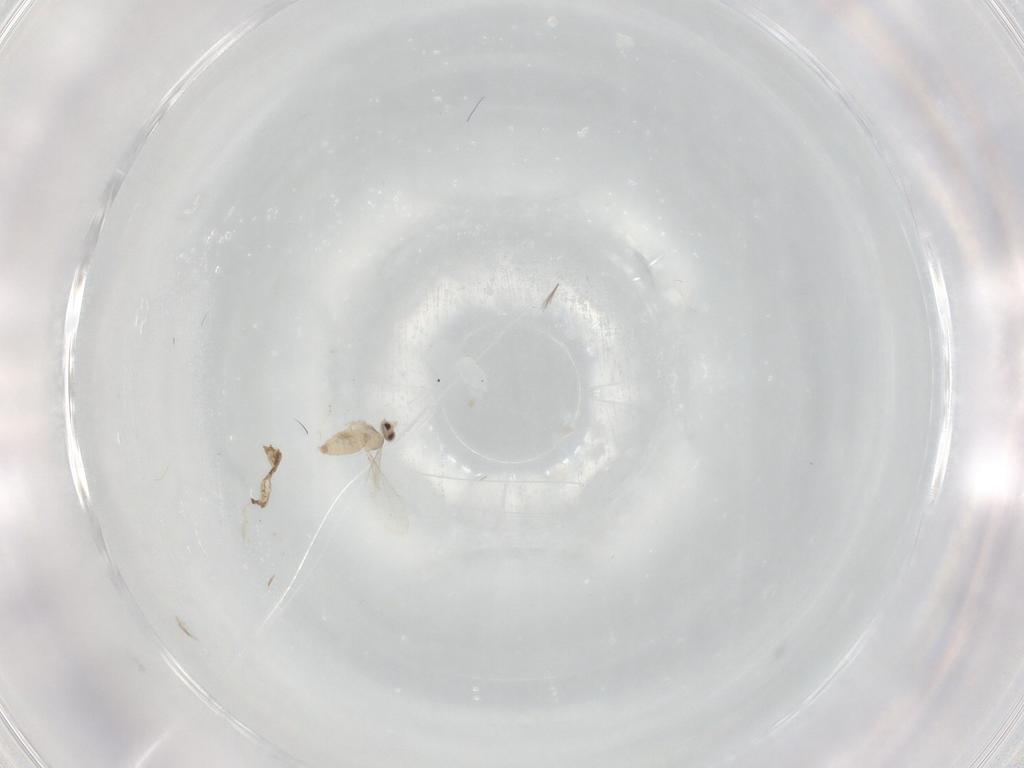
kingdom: Animalia
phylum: Arthropoda
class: Insecta
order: Diptera
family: Cecidomyiidae
